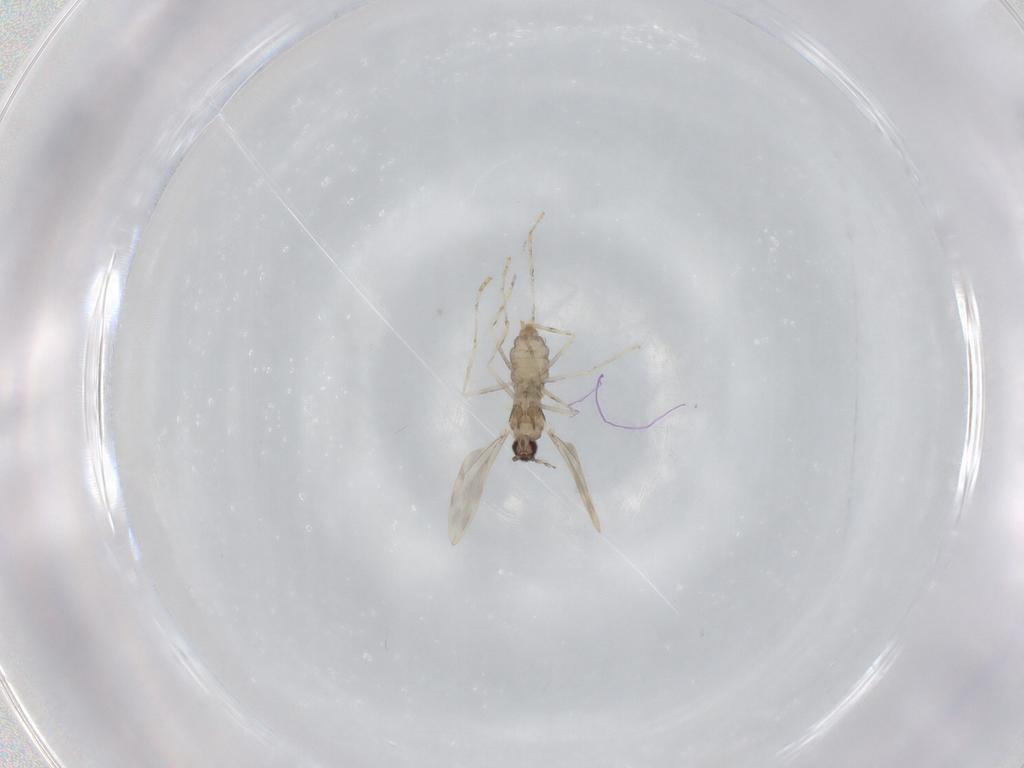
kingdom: Animalia
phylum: Arthropoda
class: Insecta
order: Diptera
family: Cecidomyiidae
